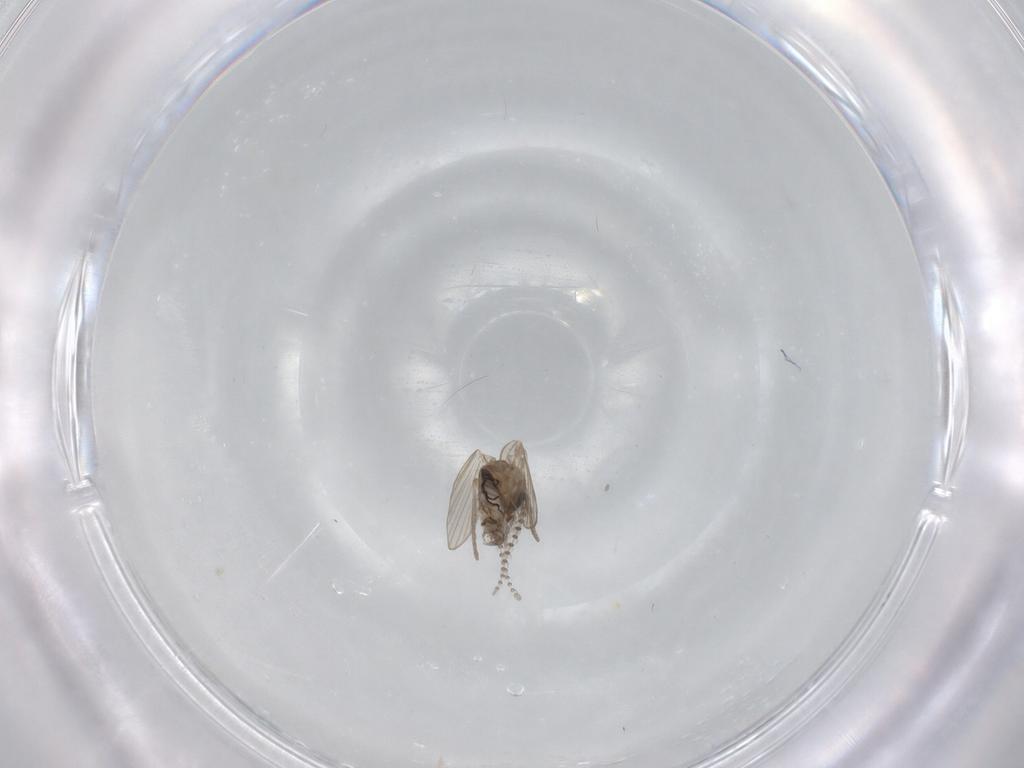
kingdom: Animalia
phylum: Arthropoda
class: Insecta
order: Diptera
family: Psychodidae
